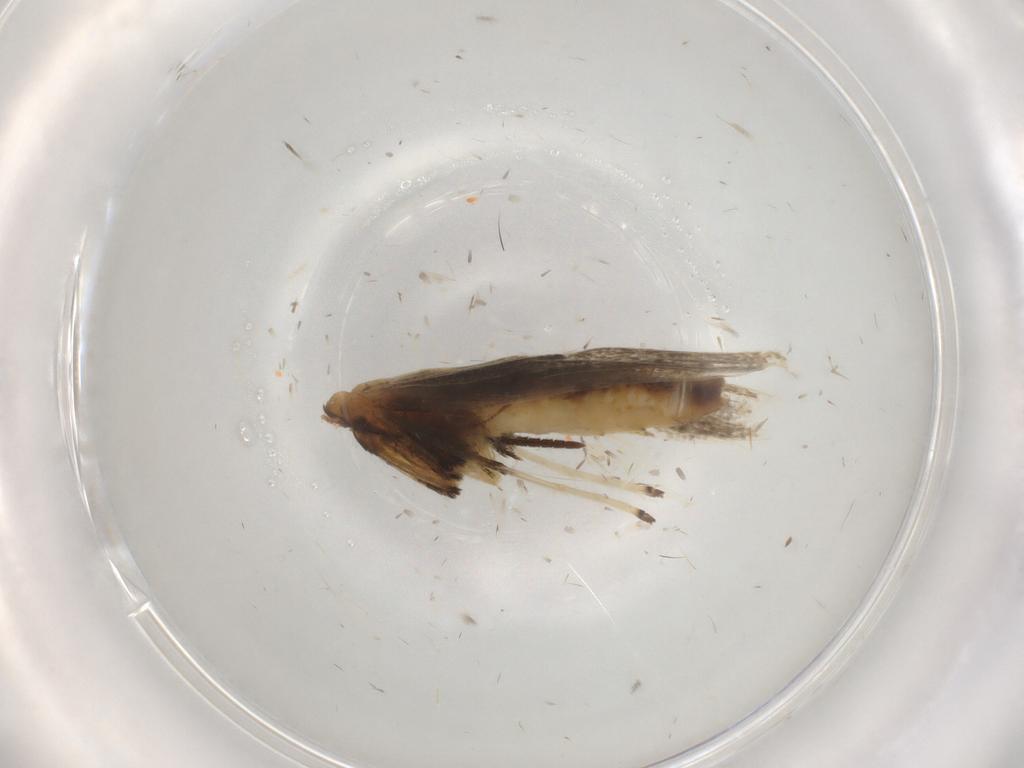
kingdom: Animalia
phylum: Arthropoda
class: Insecta
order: Lepidoptera
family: Gracillariidae
